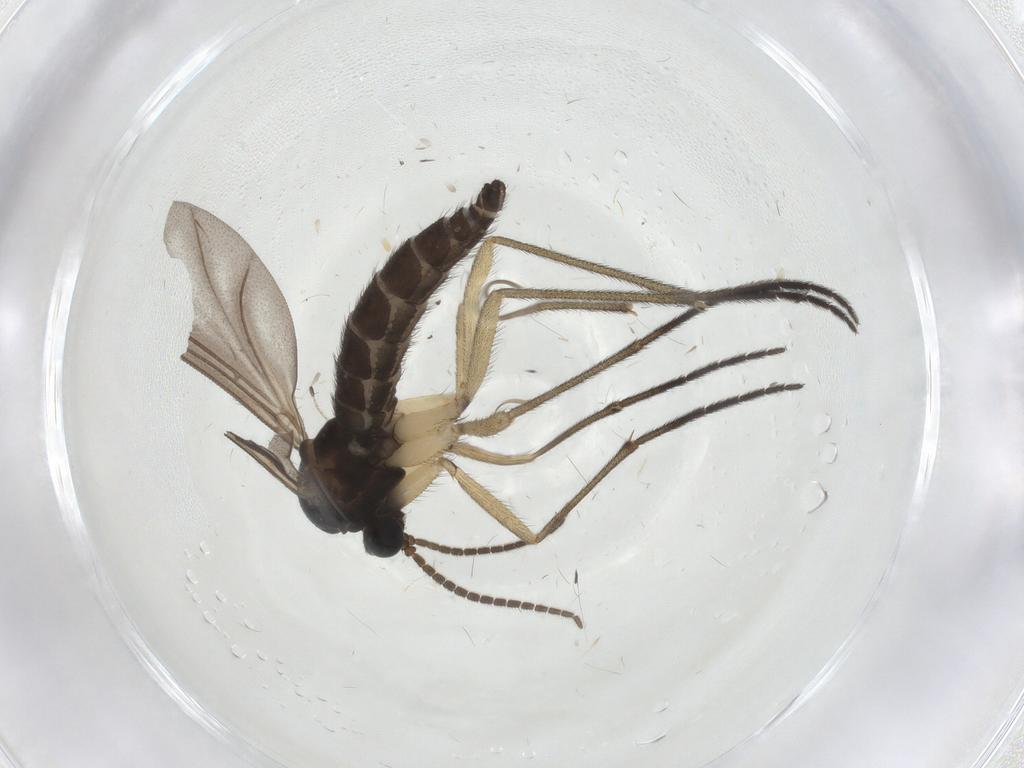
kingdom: Animalia
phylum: Arthropoda
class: Insecta
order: Diptera
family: Sciaridae
